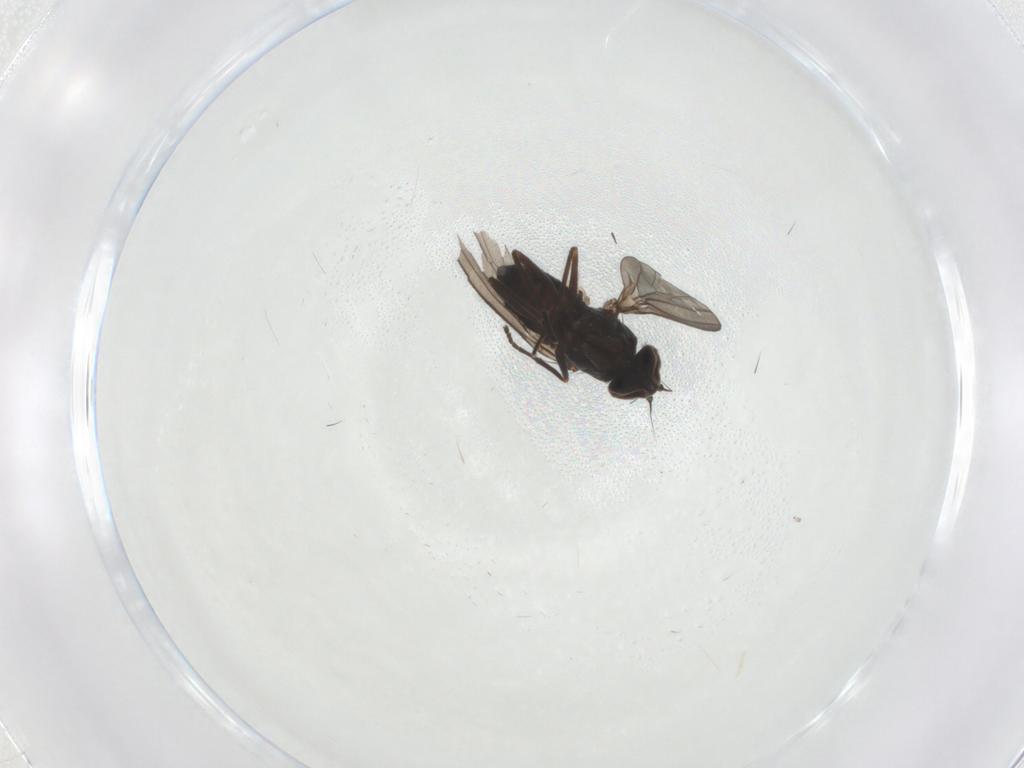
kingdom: Animalia
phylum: Arthropoda
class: Insecta
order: Diptera
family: Dolichopodidae
